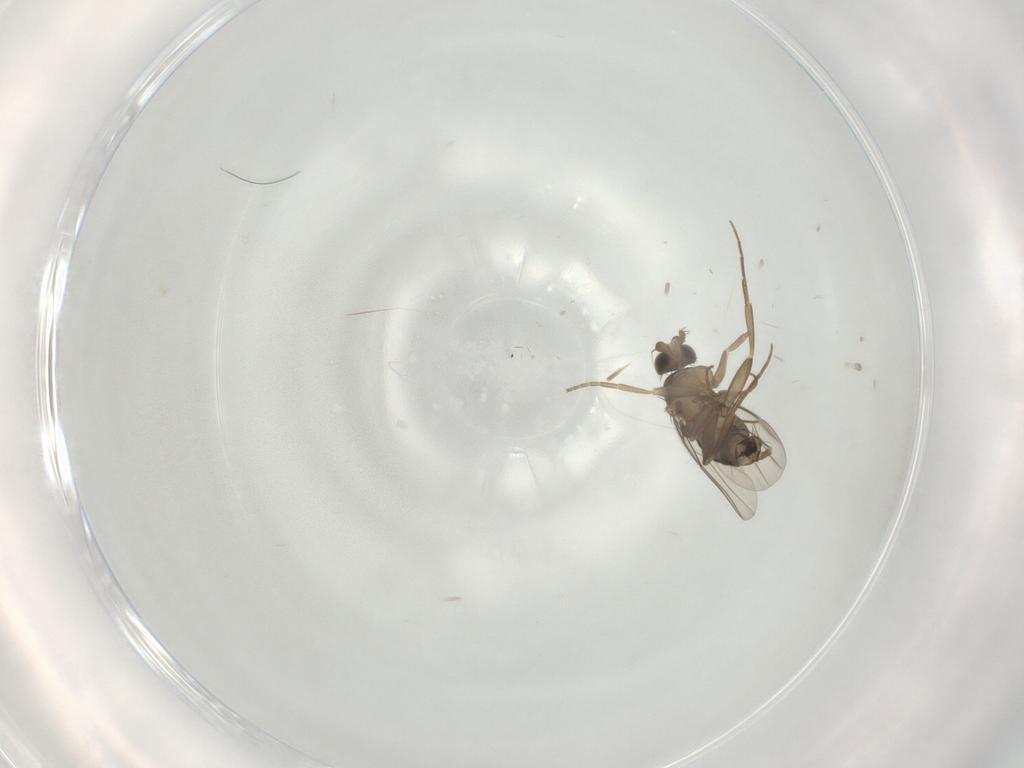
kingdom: Animalia
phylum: Arthropoda
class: Insecta
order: Diptera
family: Phoridae
